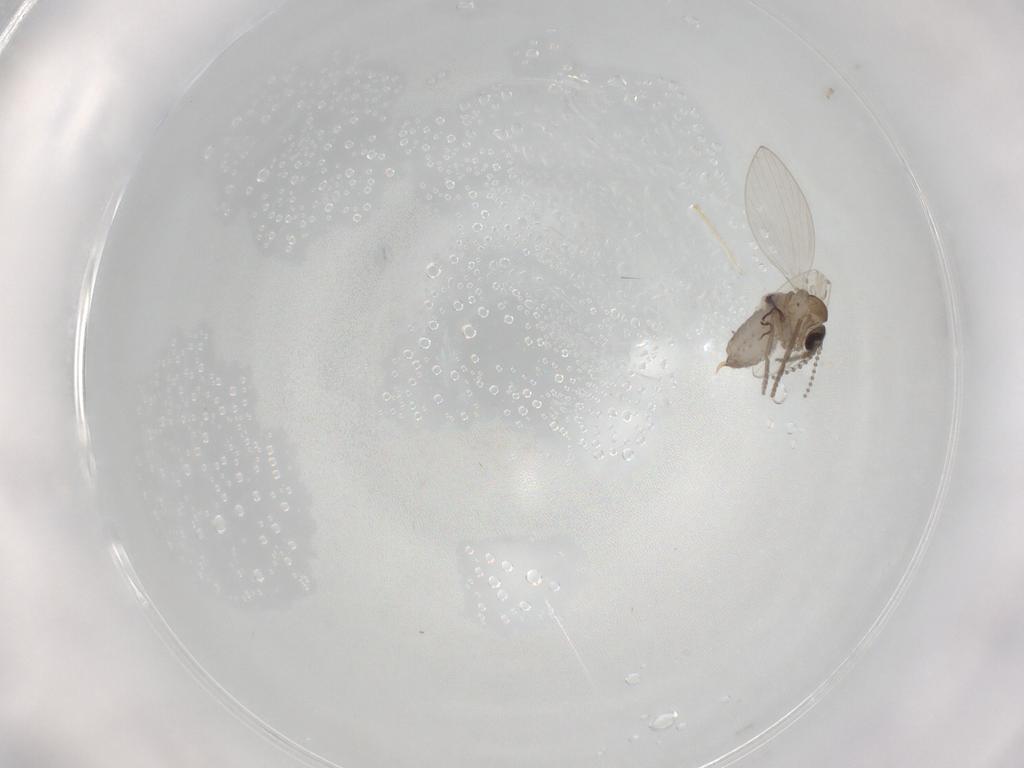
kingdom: Animalia
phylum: Arthropoda
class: Insecta
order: Diptera
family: Psychodidae
